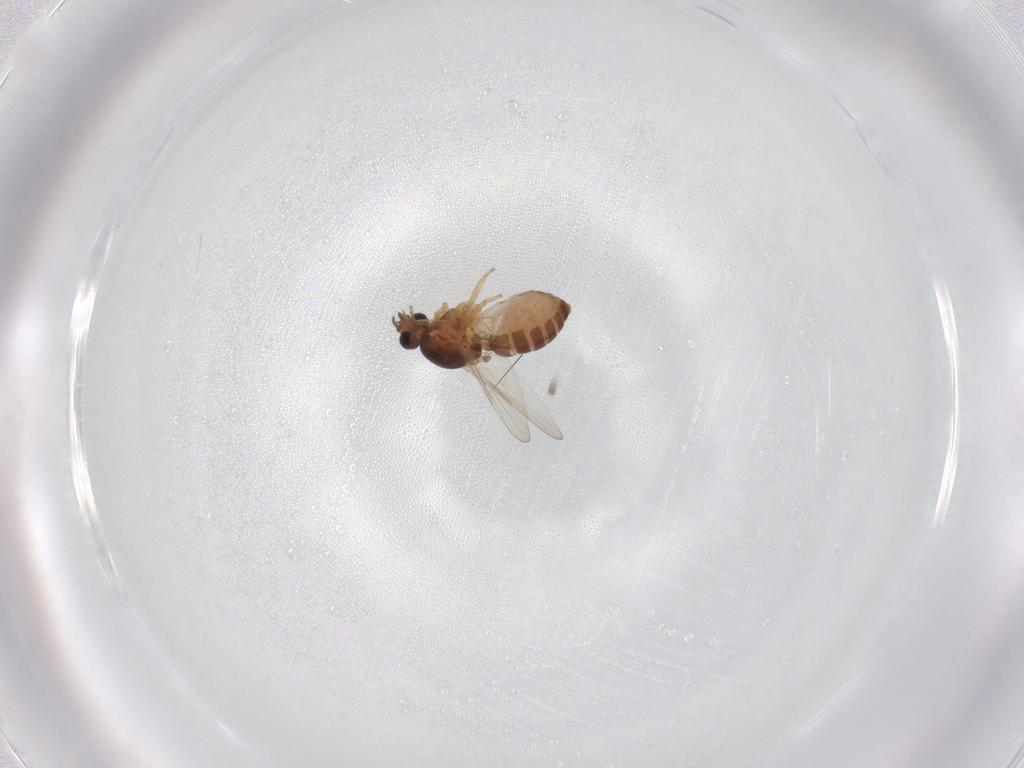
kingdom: Animalia
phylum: Arthropoda
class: Insecta
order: Diptera
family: Ceratopogonidae
